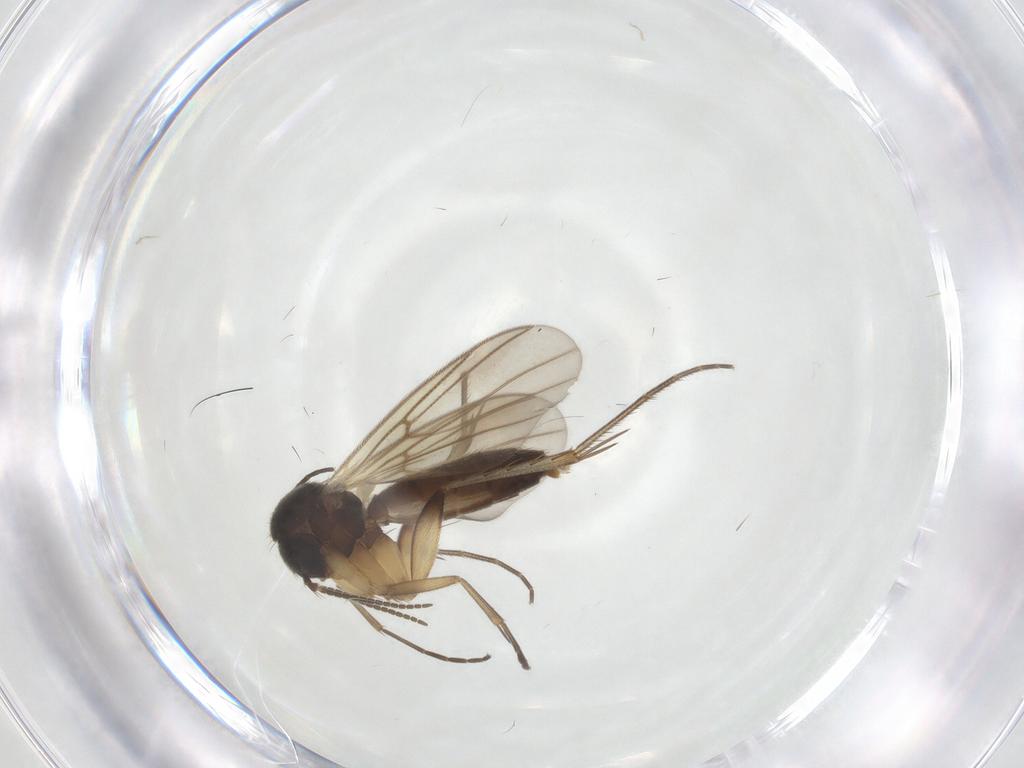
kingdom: Animalia
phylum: Arthropoda
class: Insecta
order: Diptera
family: Mycetophilidae
